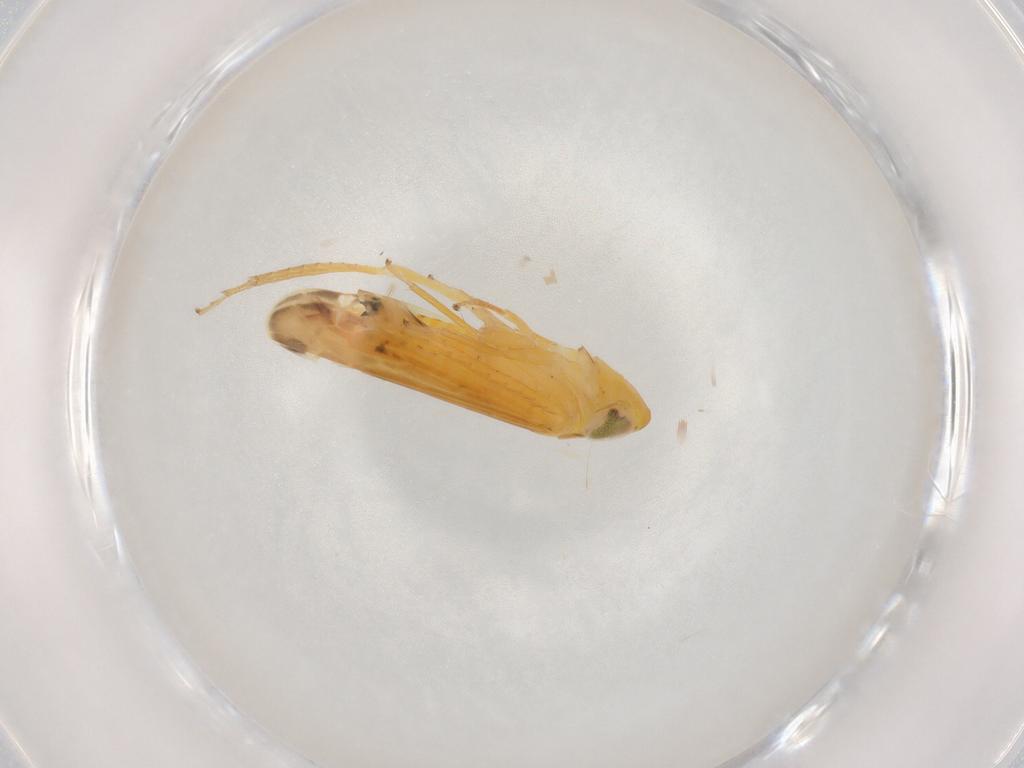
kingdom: Animalia
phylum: Arthropoda
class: Insecta
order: Hemiptera
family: Cicadellidae
